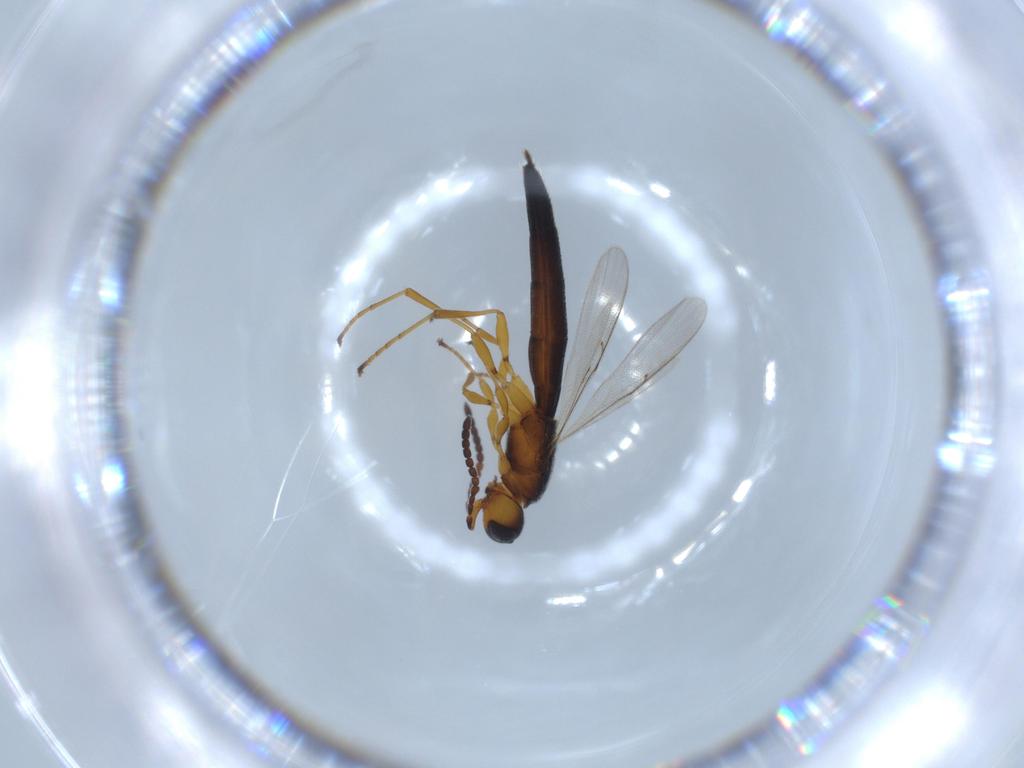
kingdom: Animalia
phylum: Arthropoda
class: Insecta
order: Hymenoptera
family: Scelionidae
